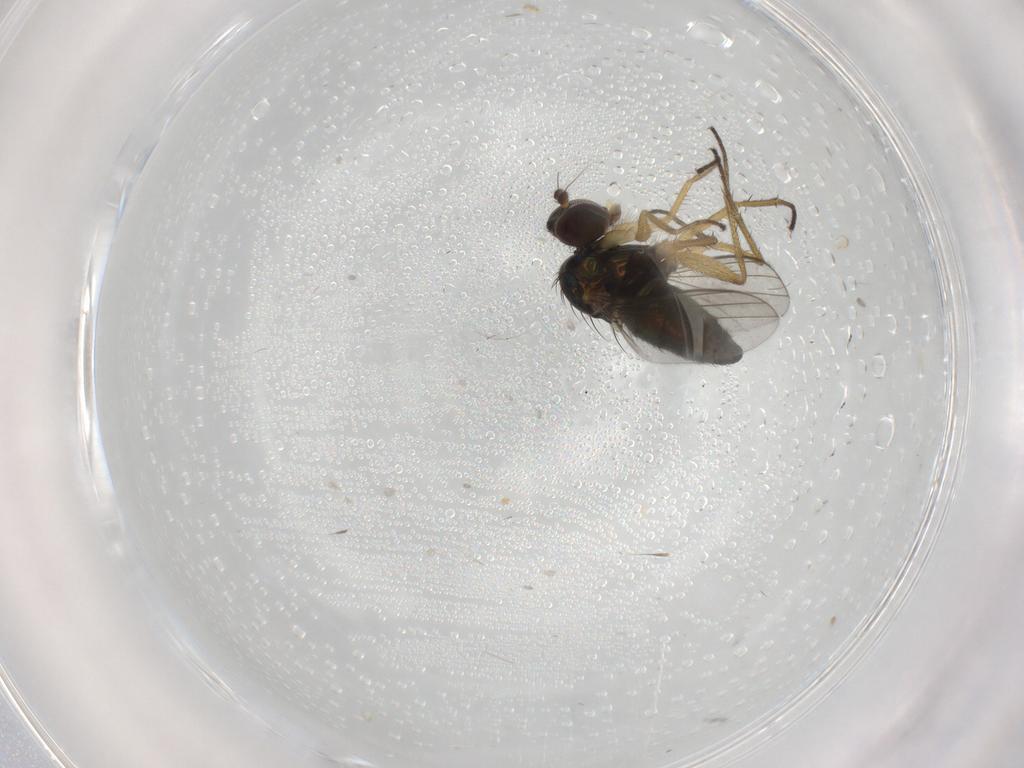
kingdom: Animalia
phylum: Arthropoda
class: Insecta
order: Diptera
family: Dolichopodidae
